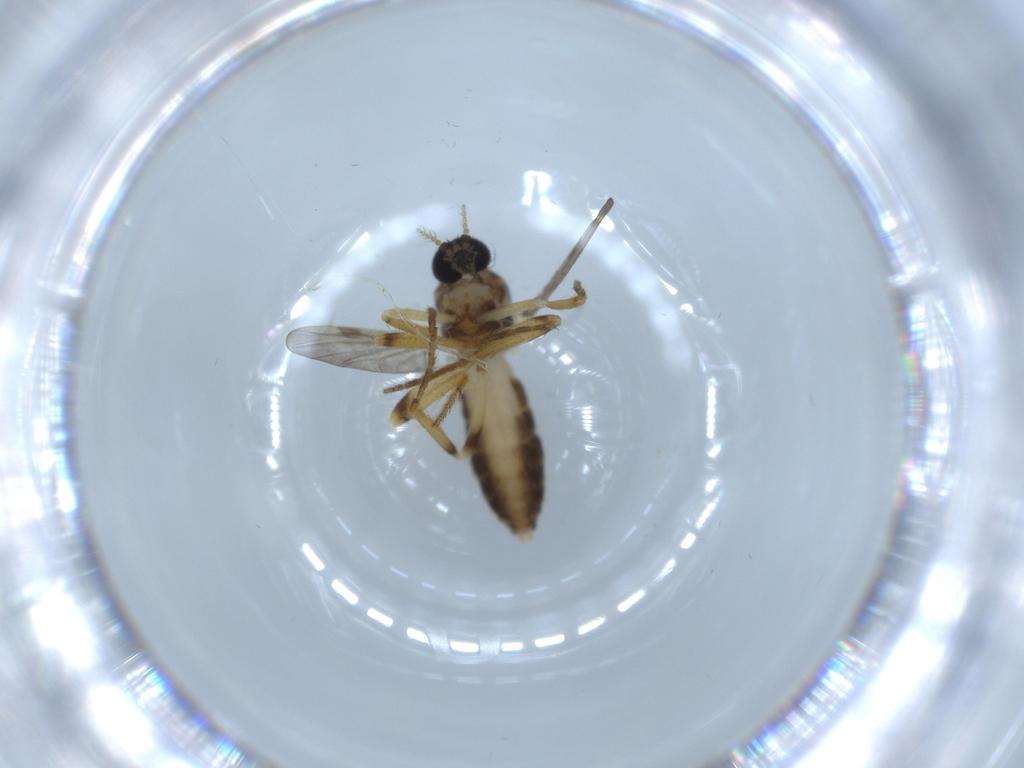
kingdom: Animalia
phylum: Arthropoda
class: Insecta
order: Diptera
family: Ceratopogonidae
